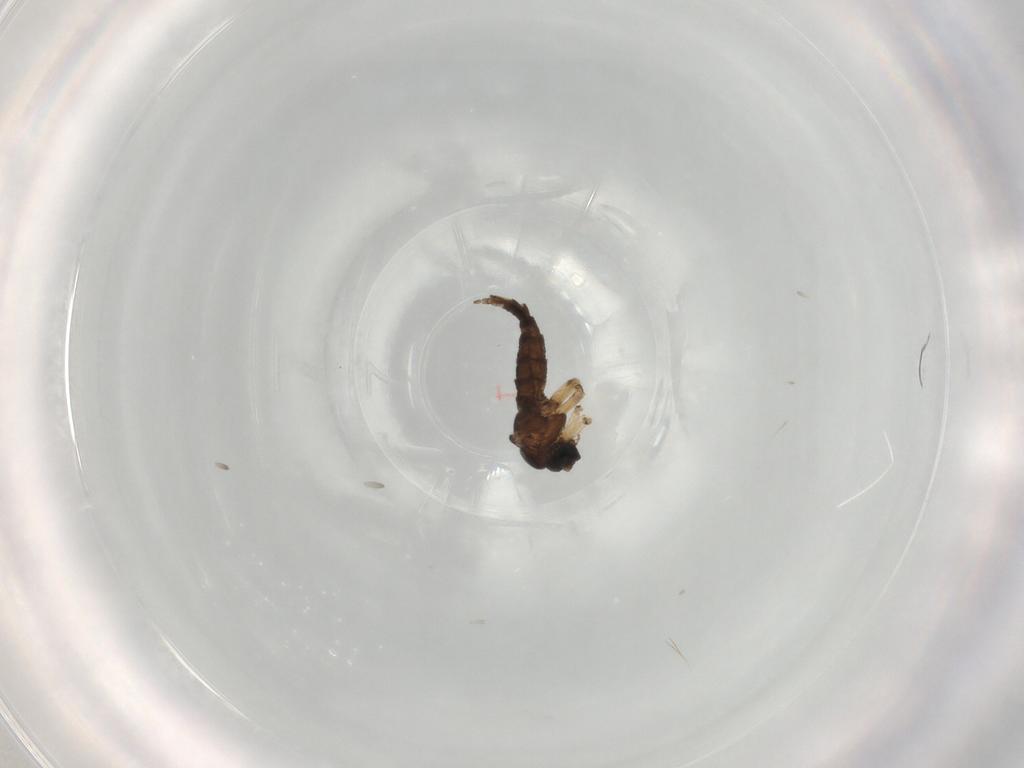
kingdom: Animalia
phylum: Arthropoda
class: Insecta
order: Diptera
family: Sciaridae
